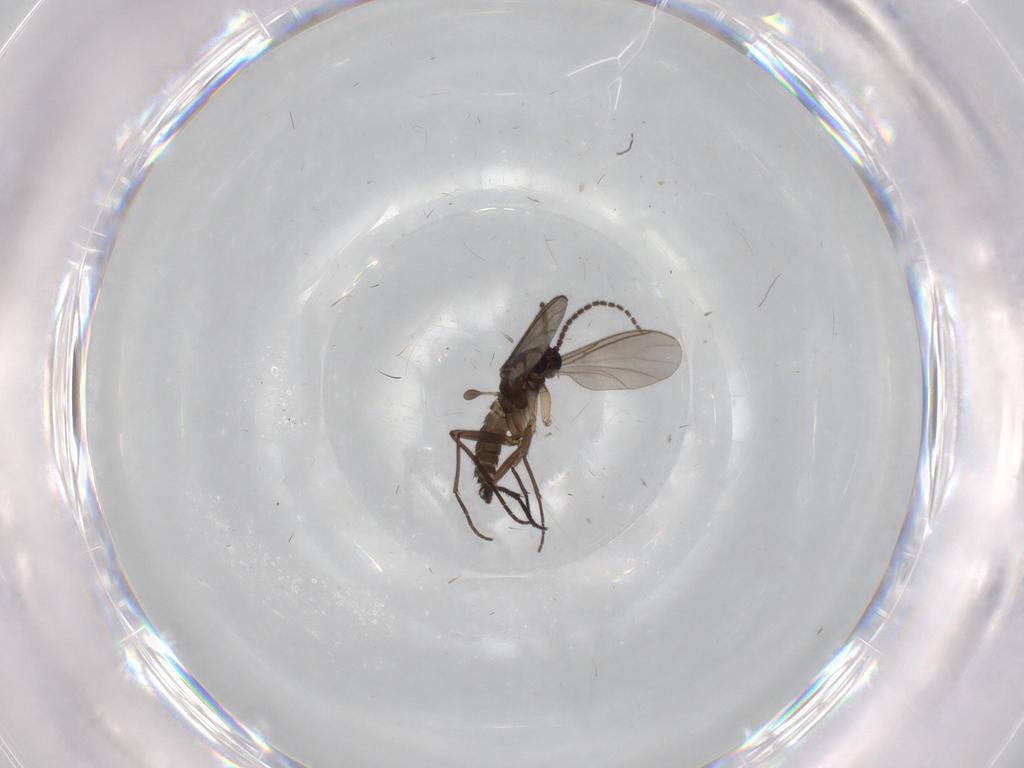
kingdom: Animalia
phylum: Arthropoda
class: Insecta
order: Diptera
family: Sciaridae
